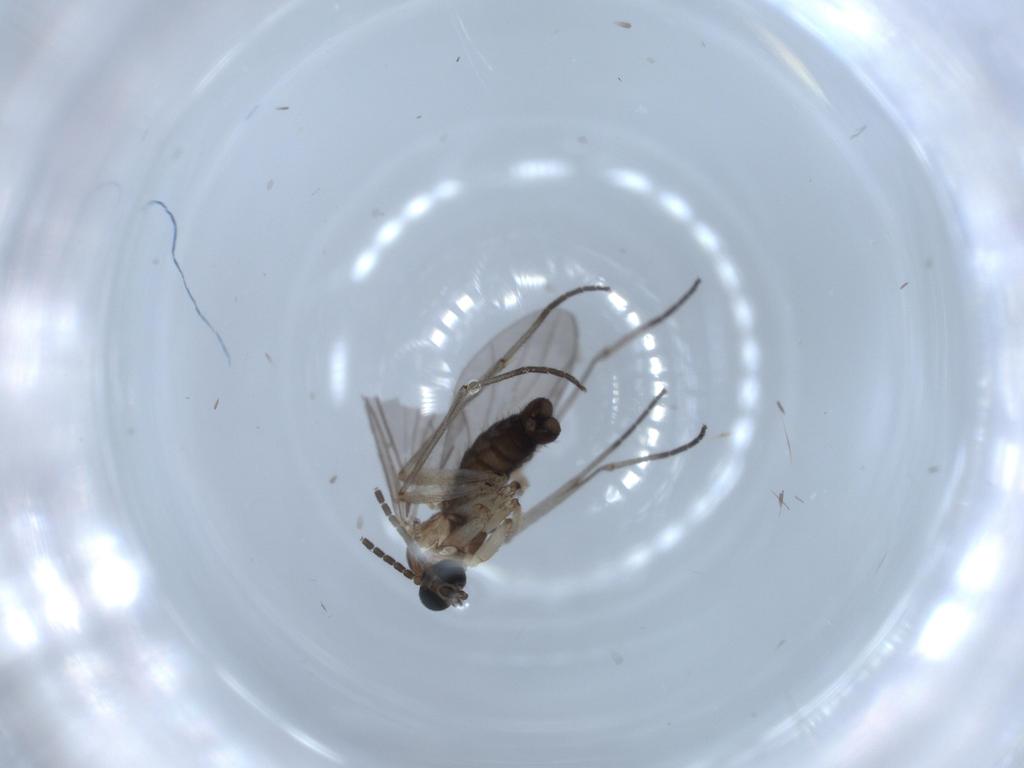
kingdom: Animalia
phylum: Arthropoda
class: Insecta
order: Diptera
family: Sciaridae
